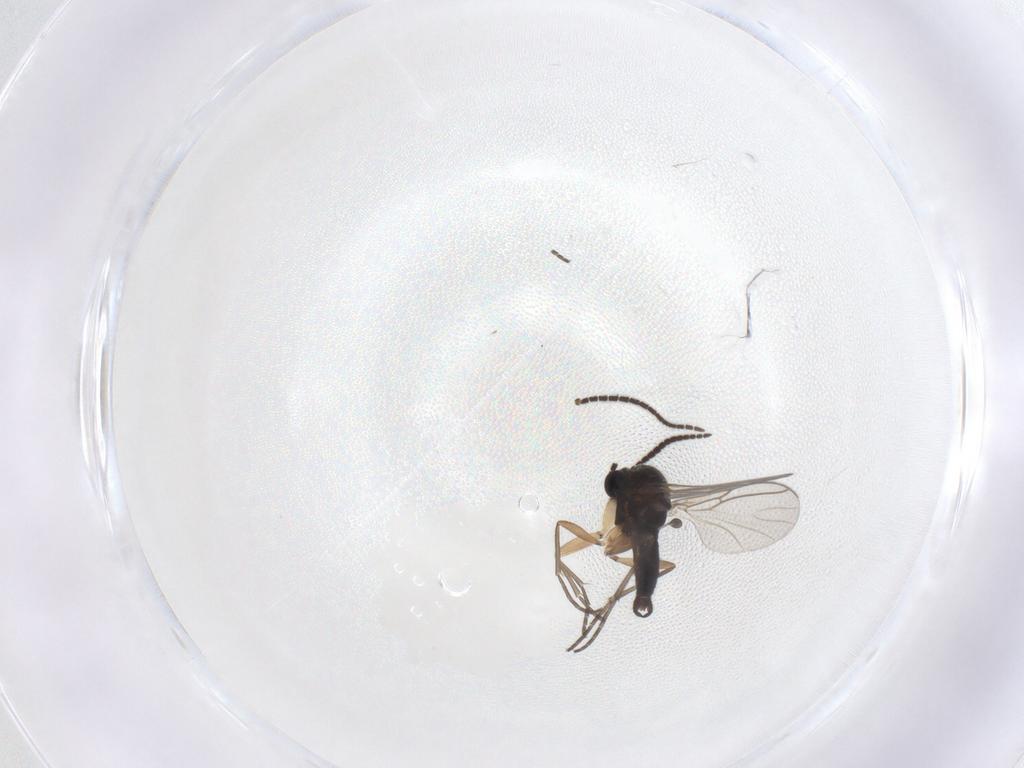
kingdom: Animalia
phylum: Arthropoda
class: Insecta
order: Diptera
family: Sciaridae
